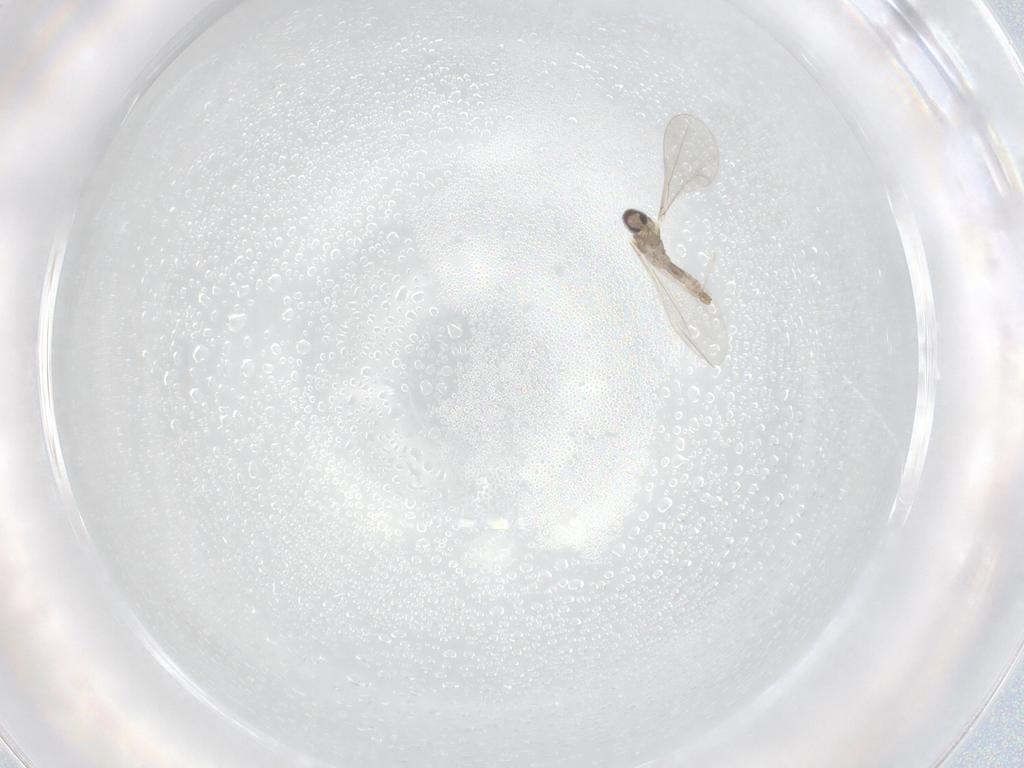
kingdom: Animalia
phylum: Arthropoda
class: Insecta
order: Diptera
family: Cecidomyiidae
